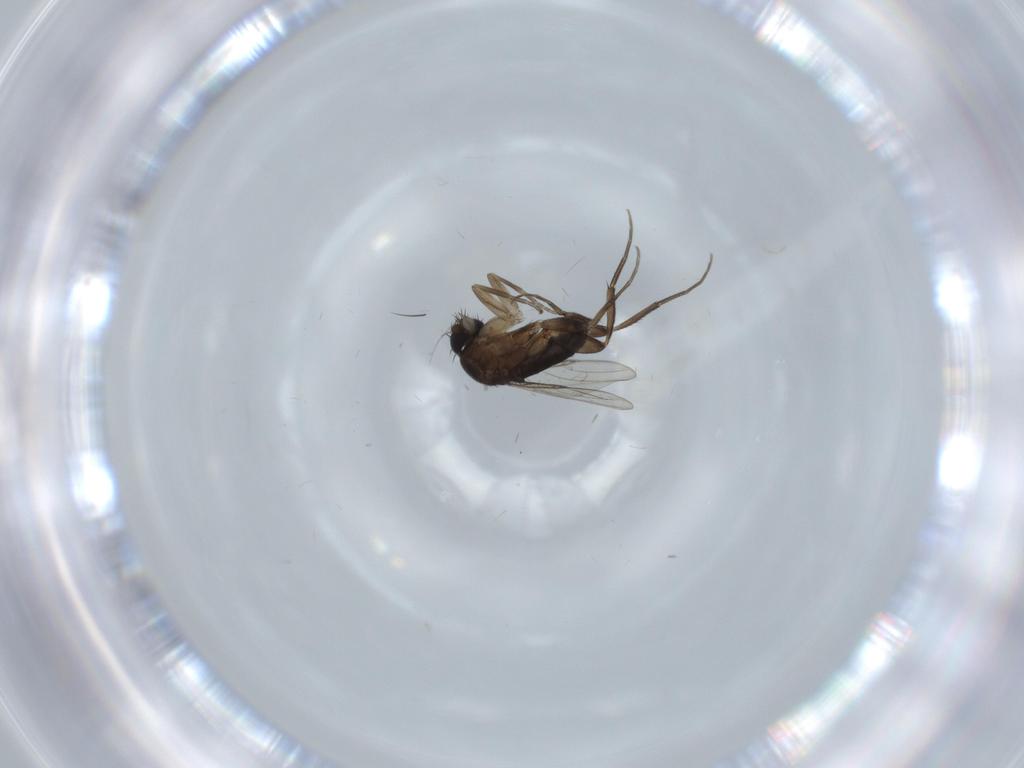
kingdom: Animalia
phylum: Arthropoda
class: Insecta
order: Diptera
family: Phoridae
